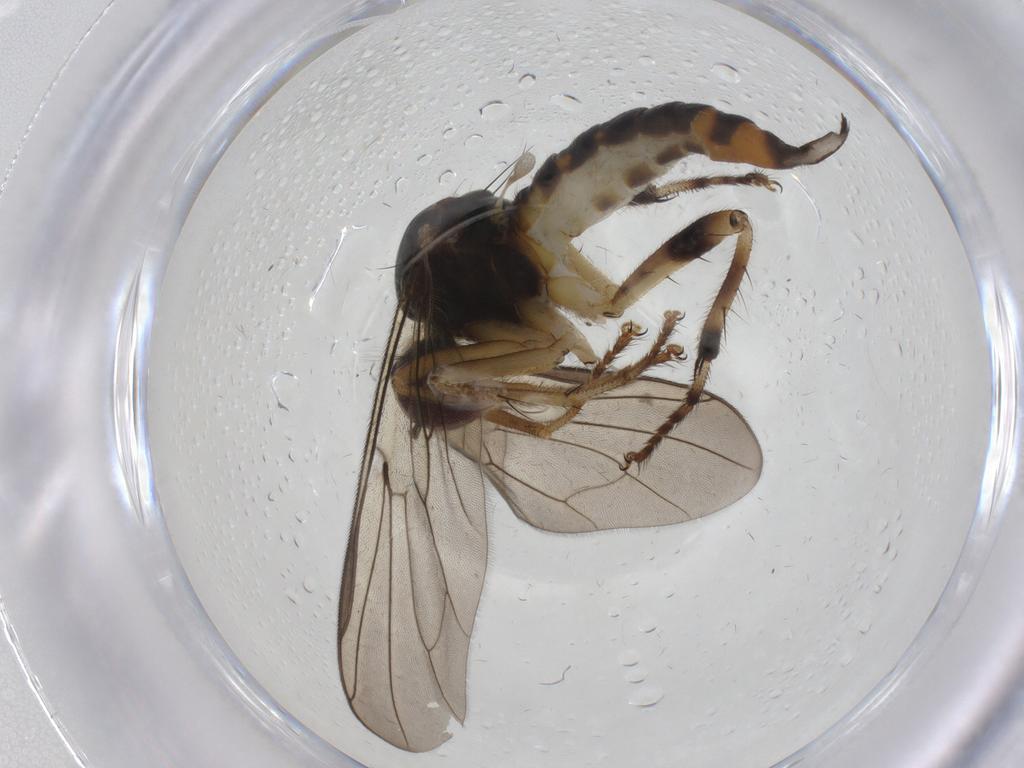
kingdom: Animalia
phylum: Arthropoda
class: Insecta
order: Diptera
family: Hybotidae
